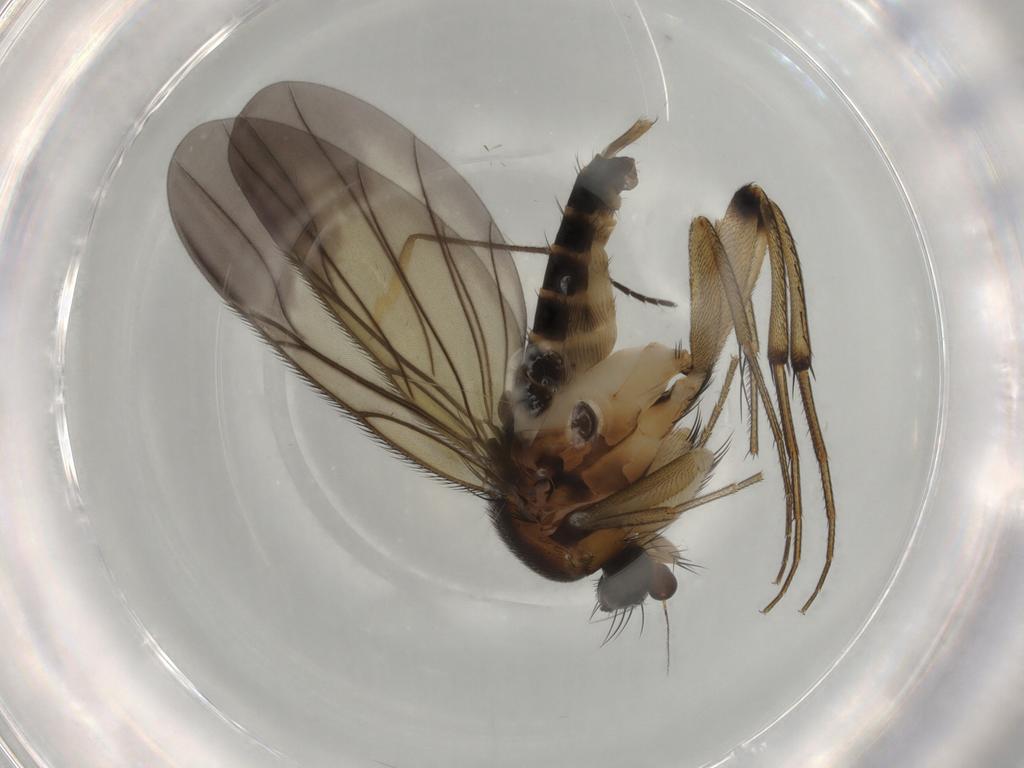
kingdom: Animalia
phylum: Arthropoda
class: Insecta
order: Diptera
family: Phoridae
